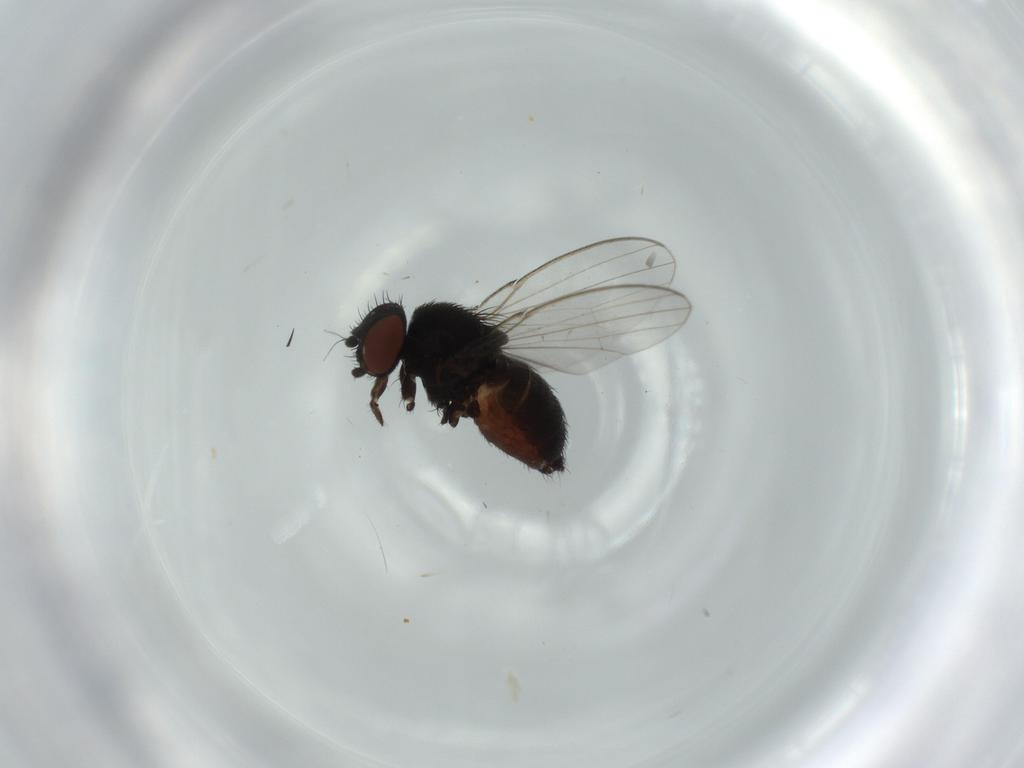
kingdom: Animalia
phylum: Arthropoda
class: Insecta
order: Diptera
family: Milichiidae
